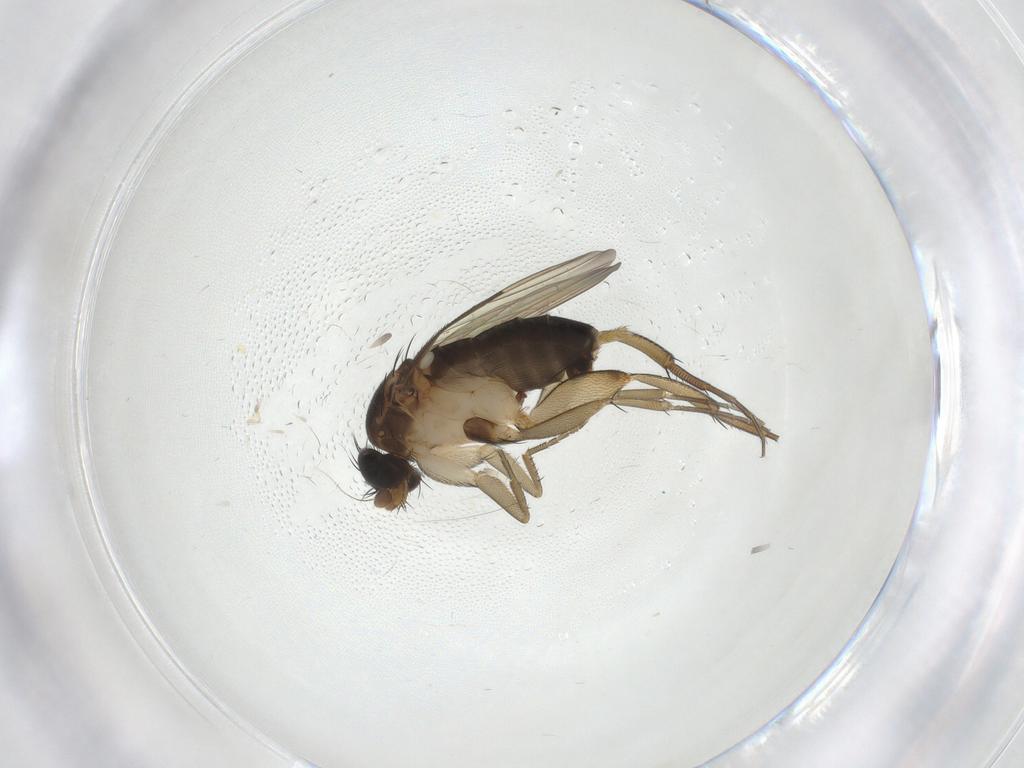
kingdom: Animalia
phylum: Arthropoda
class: Insecta
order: Diptera
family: Phoridae
